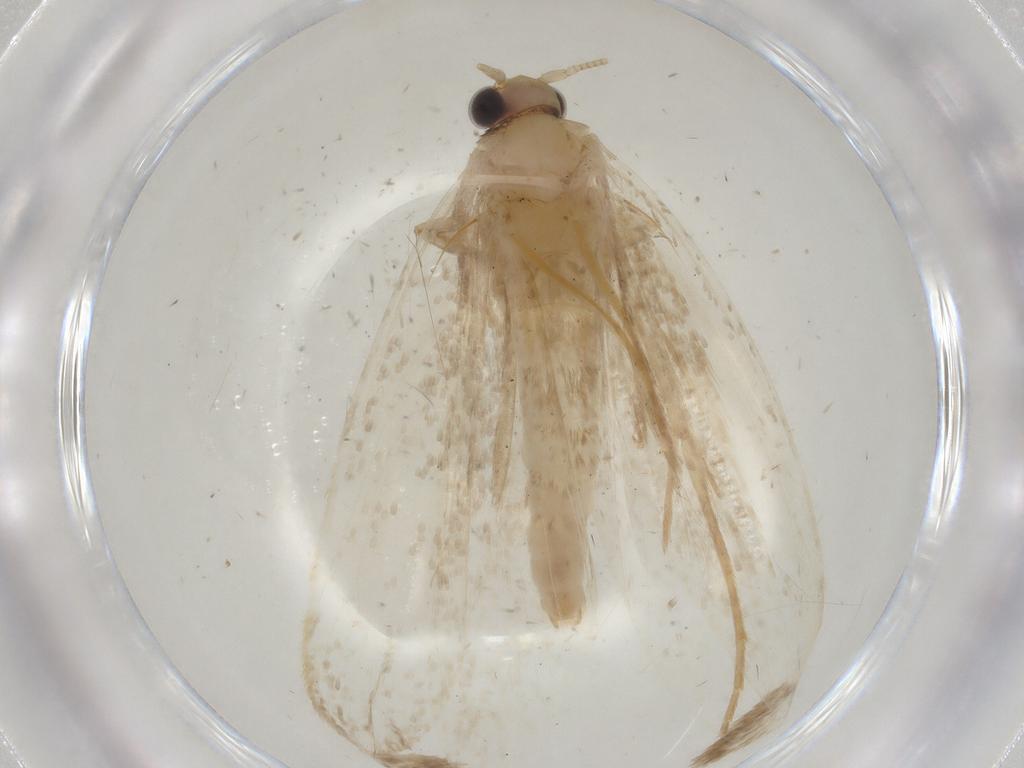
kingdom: Animalia
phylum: Arthropoda
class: Insecta
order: Lepidoptera
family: Tineidae
